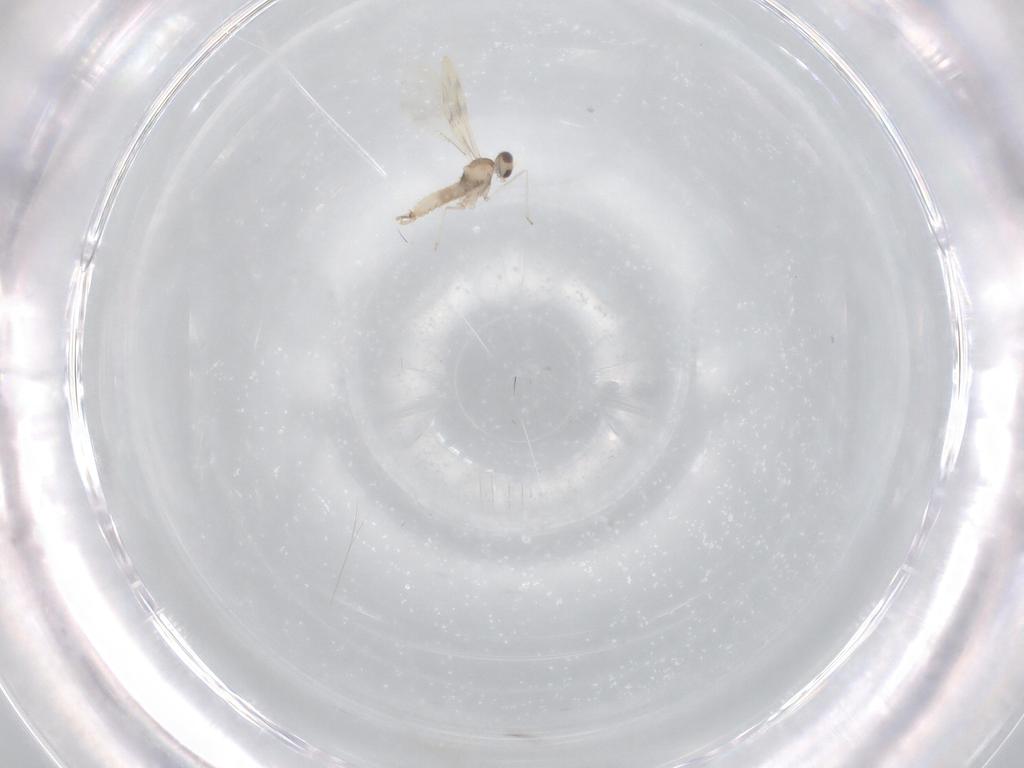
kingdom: Animalia
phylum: Arthropoda
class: Insecta
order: Diptera
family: Cecidomyiidae
